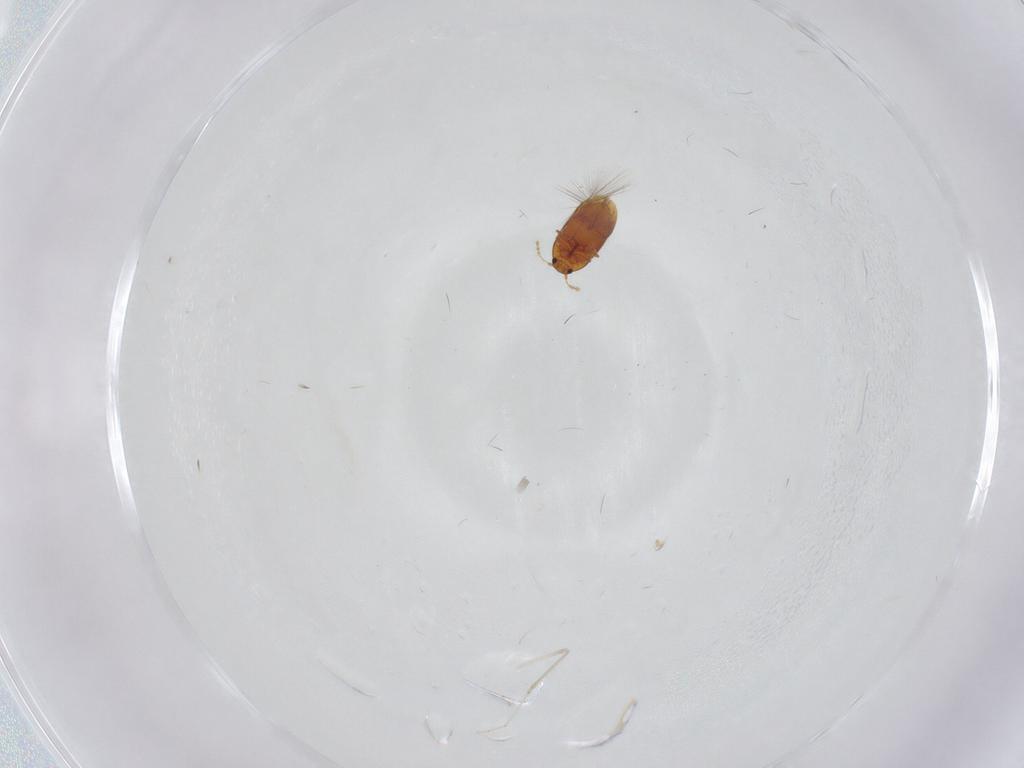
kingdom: Animalia
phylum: Arthropoda
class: Insecta
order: Coleoptera
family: Ptiliidae
